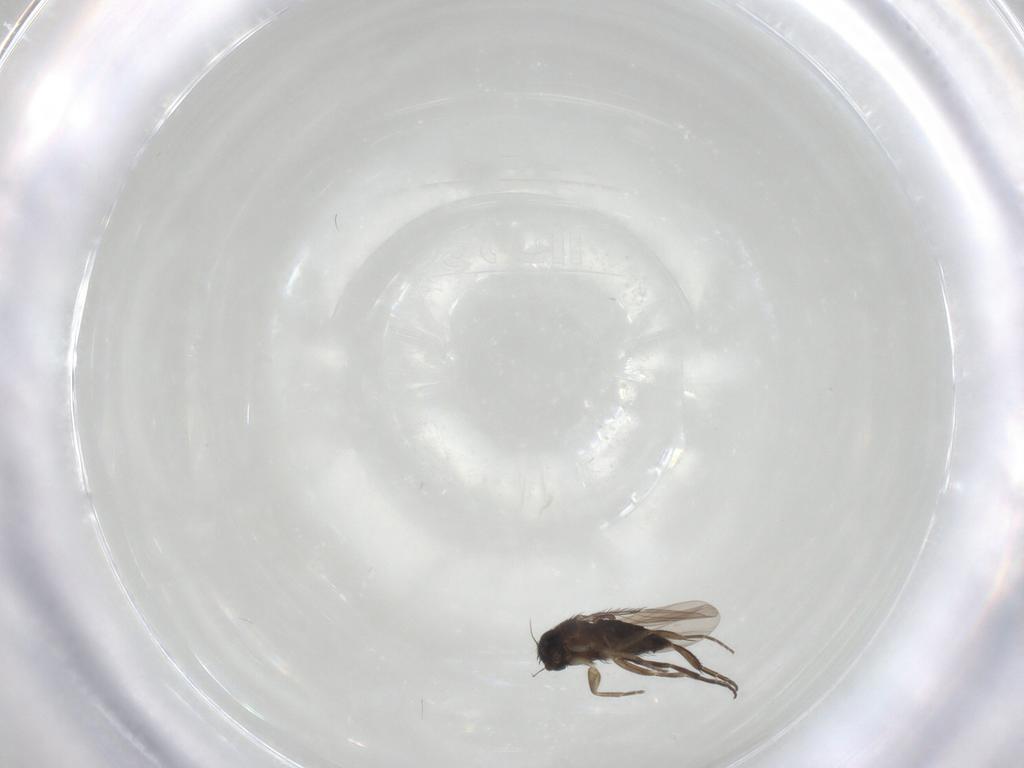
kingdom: Animalia
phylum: Arthropoda
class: Insecta
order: Diptera
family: Phoridae
